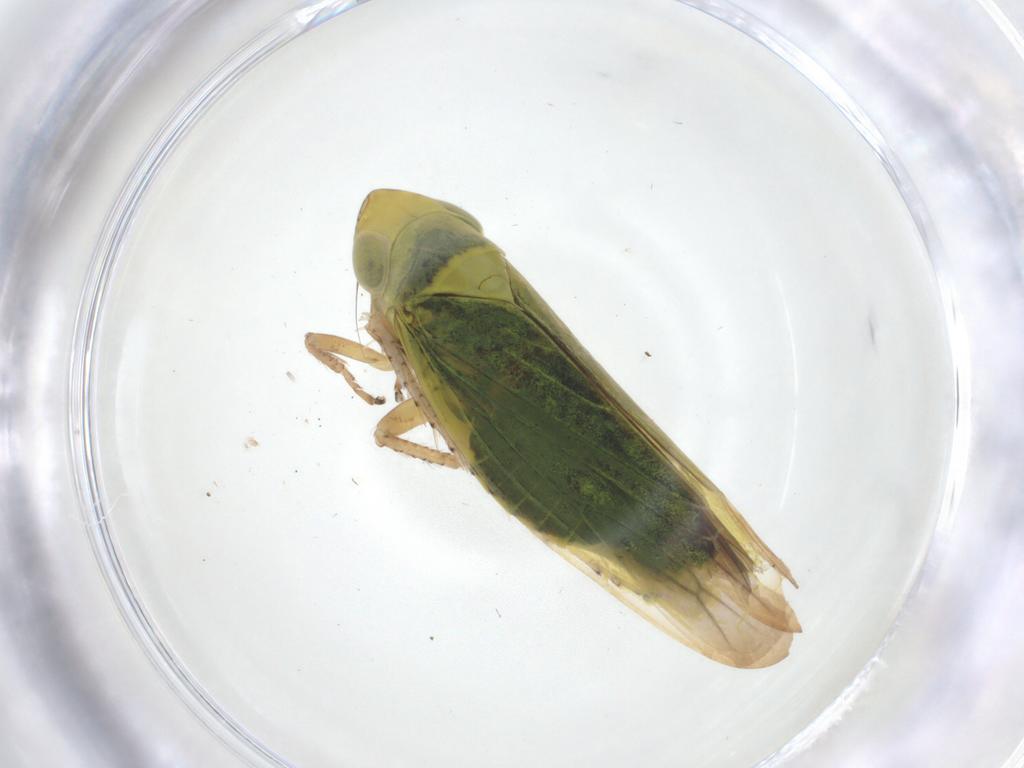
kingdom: Animalia
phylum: Arthropoda
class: Insecta
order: Hemiptera
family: Cicadellidae
